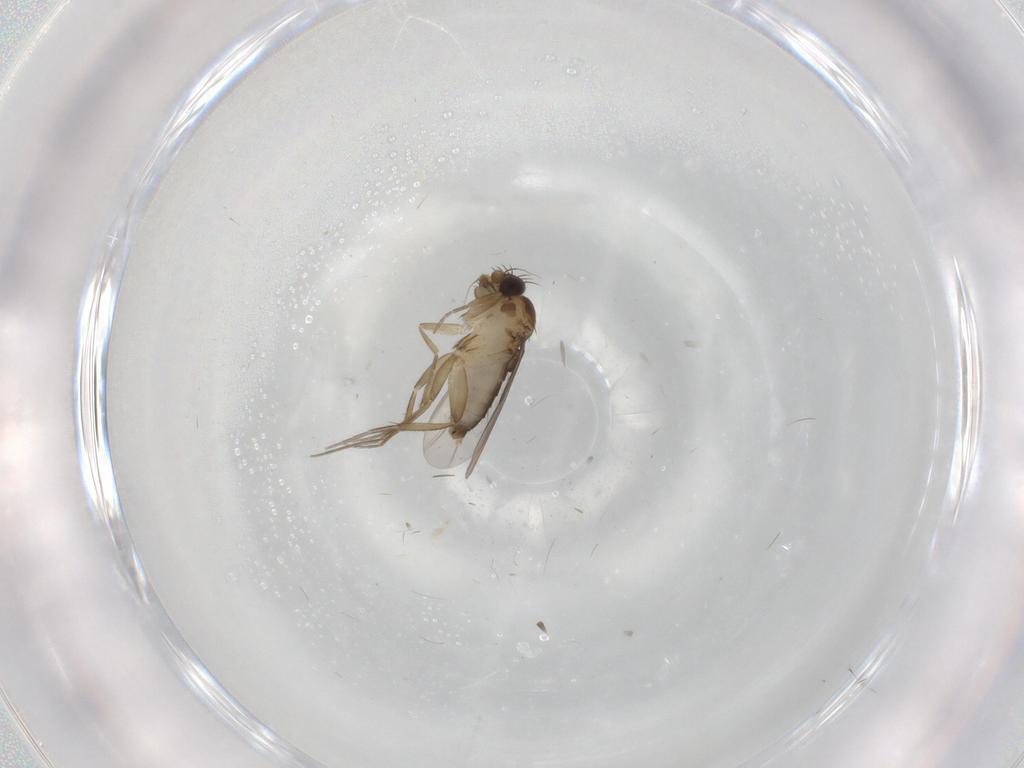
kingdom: Animalia
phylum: Arthropoda
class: Insecta
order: Diptera
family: Phoridae
